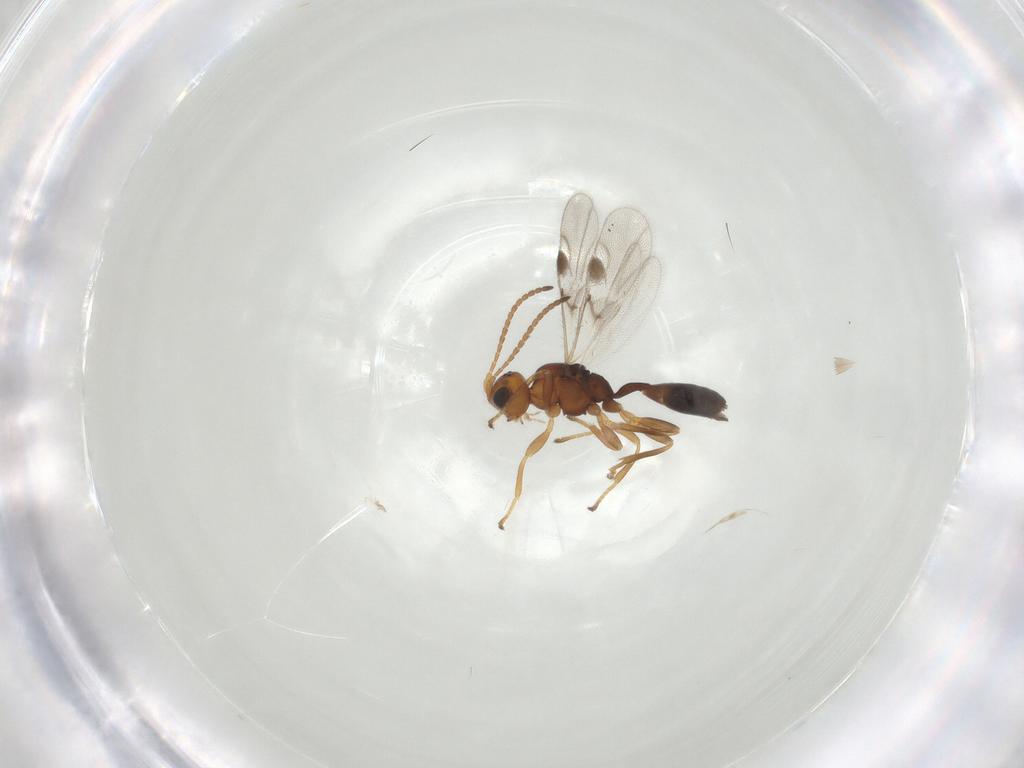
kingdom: Animalia
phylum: Arthropoda
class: Insecta
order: Hymenoptera
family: Braconidae
